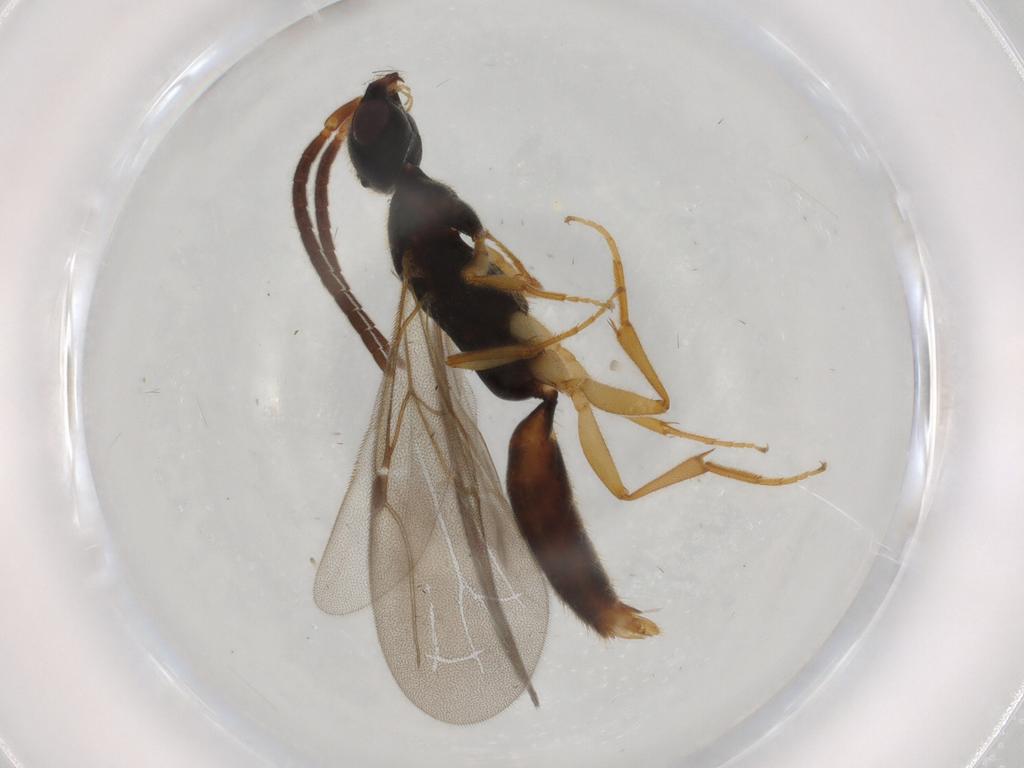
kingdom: Animalia
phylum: Arthropoda
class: Insecta
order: Hymenoptera
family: Bethylidae
